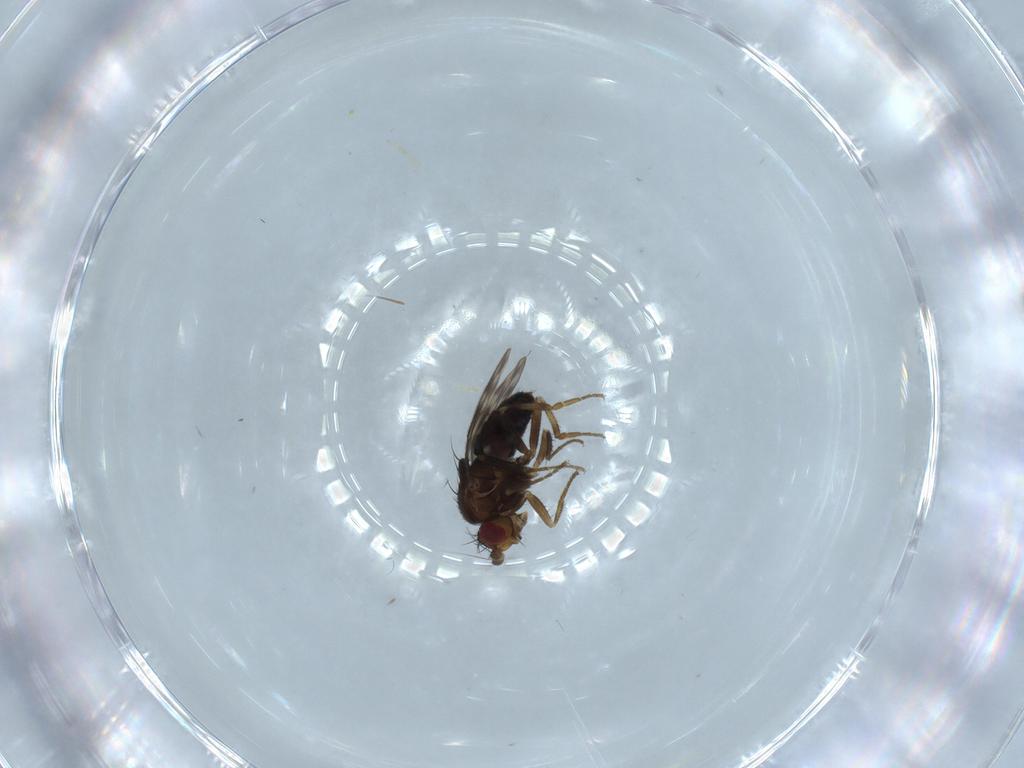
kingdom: Animalia
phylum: Arthropoda
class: Insecta
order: Diptera
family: Sphaeroceridae
